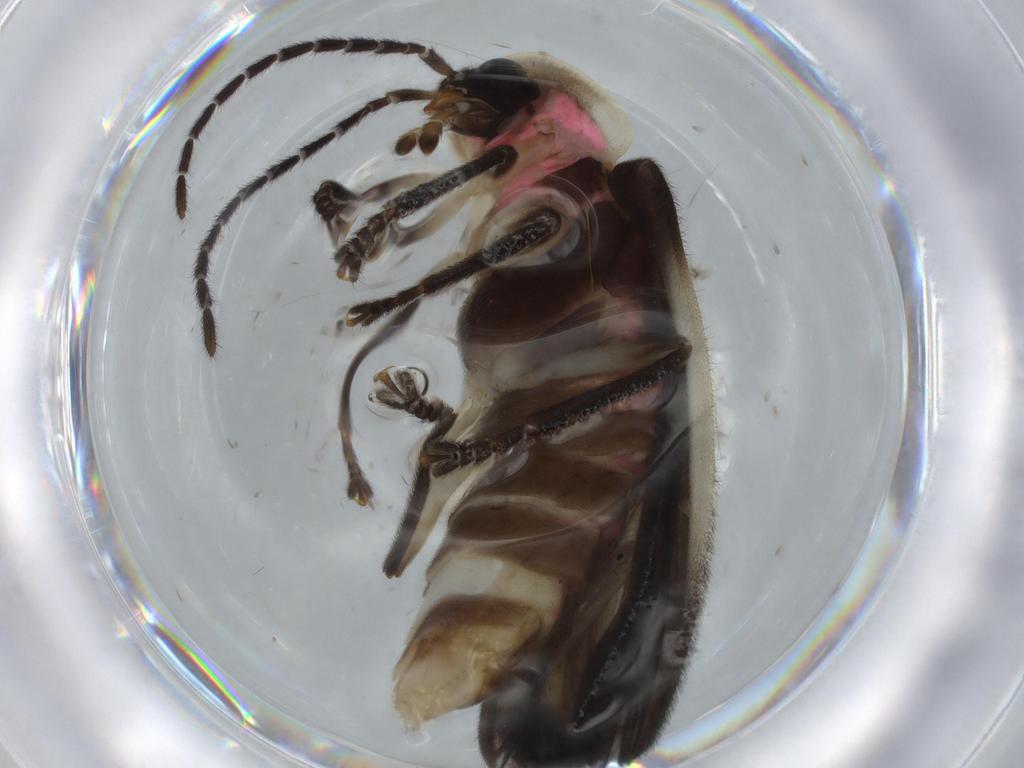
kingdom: Animalia
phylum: Arthropoda
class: Insecta
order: Coleoptera
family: Lampyridae
